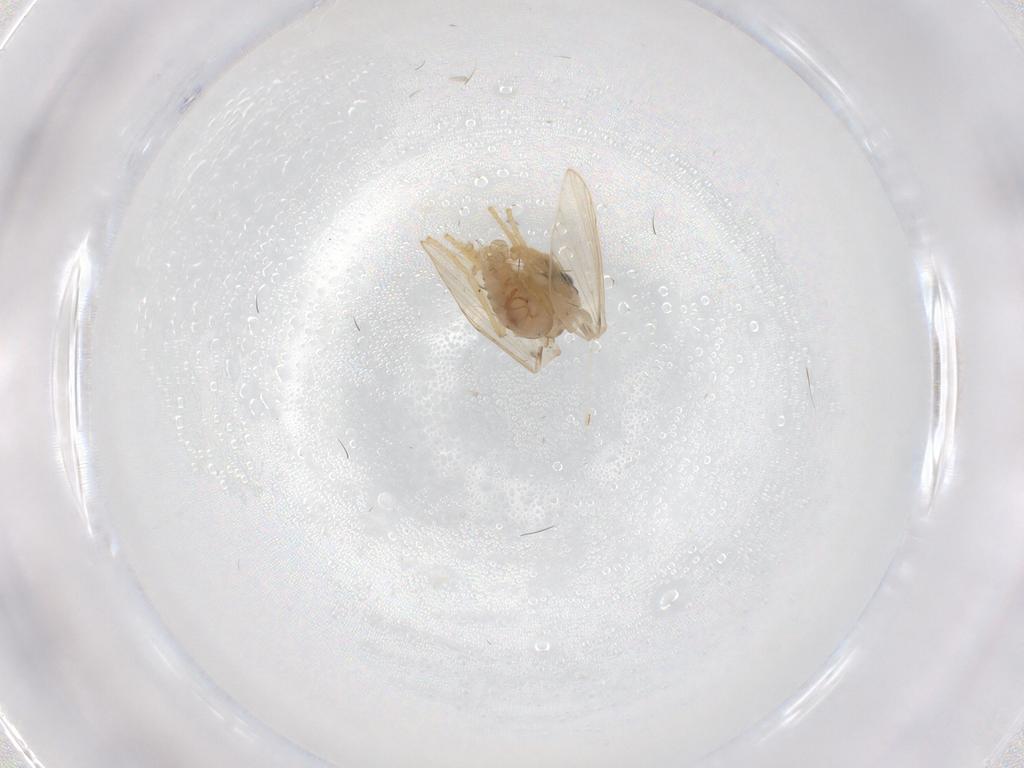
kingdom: Animalia
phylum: Arthropoda
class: Insecta
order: Diptera
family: Psychodidae
